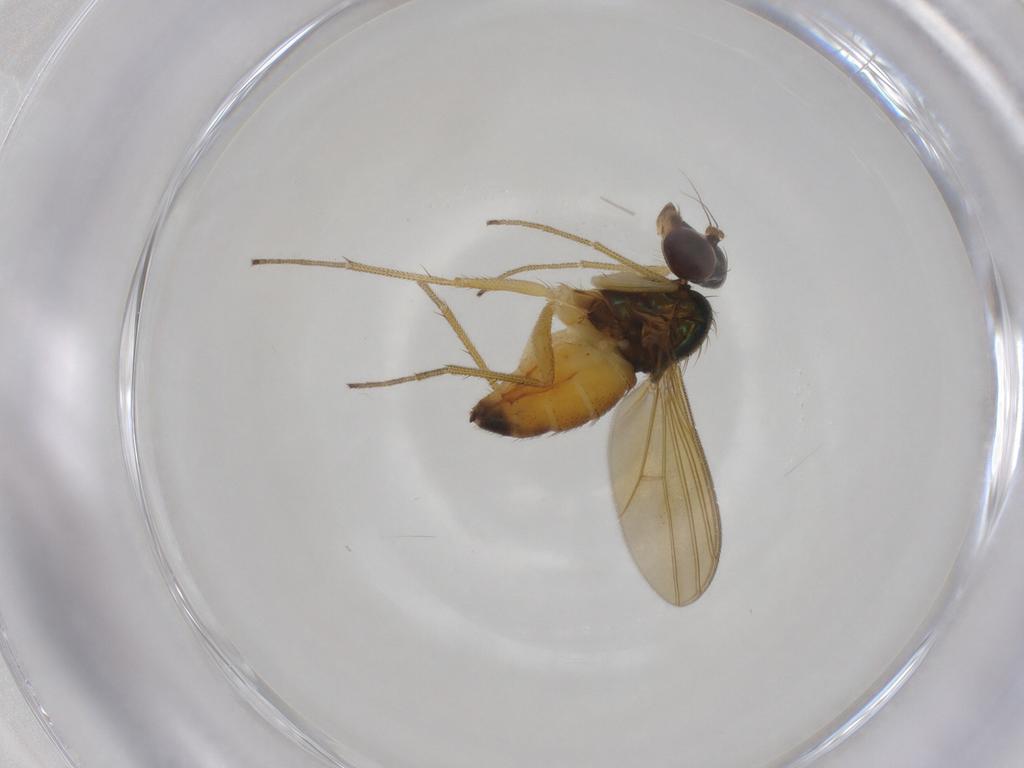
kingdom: Animalia
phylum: Arthropoda
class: Insecta
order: Diptera
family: Dolichopodidae
